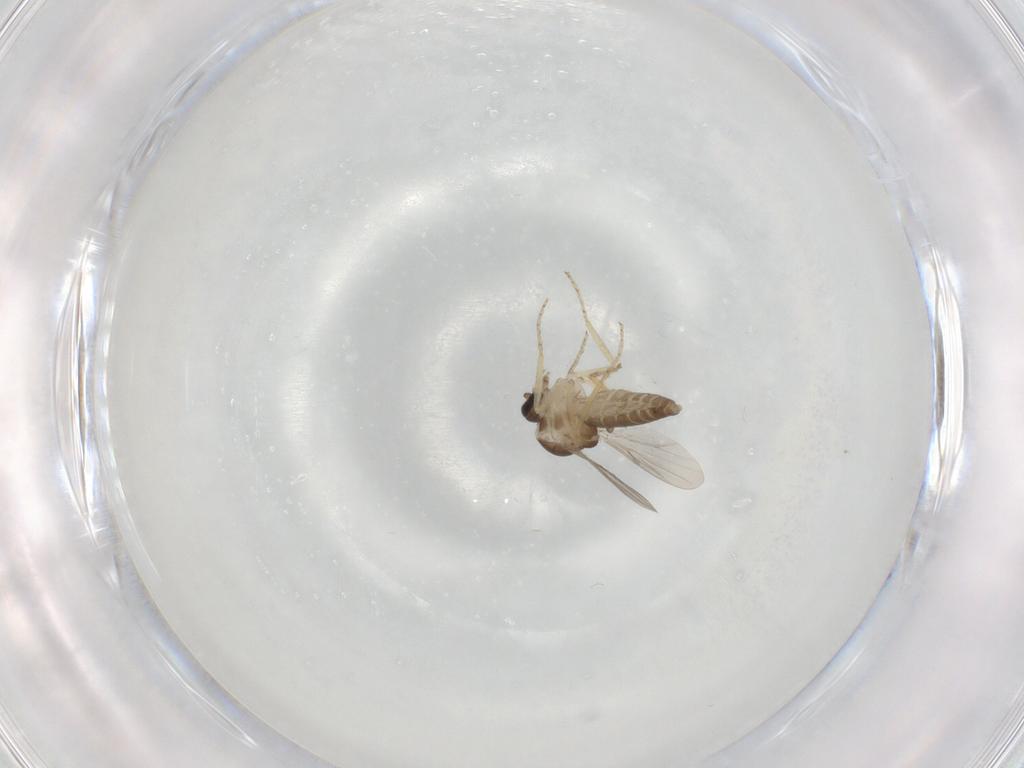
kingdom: Animalia
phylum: Arthropoda
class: Insecta
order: Diptera
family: Ceratopogonidae
